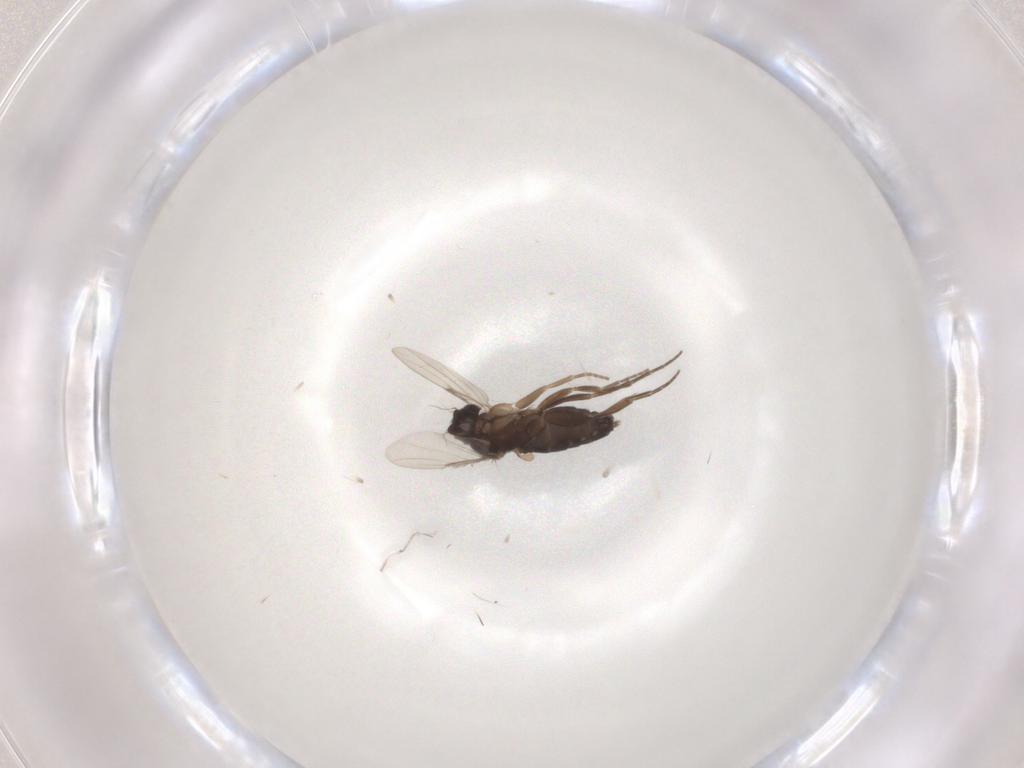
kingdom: Animalia
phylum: Arthropoda
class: Insecta
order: Diptera
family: Phoridae
